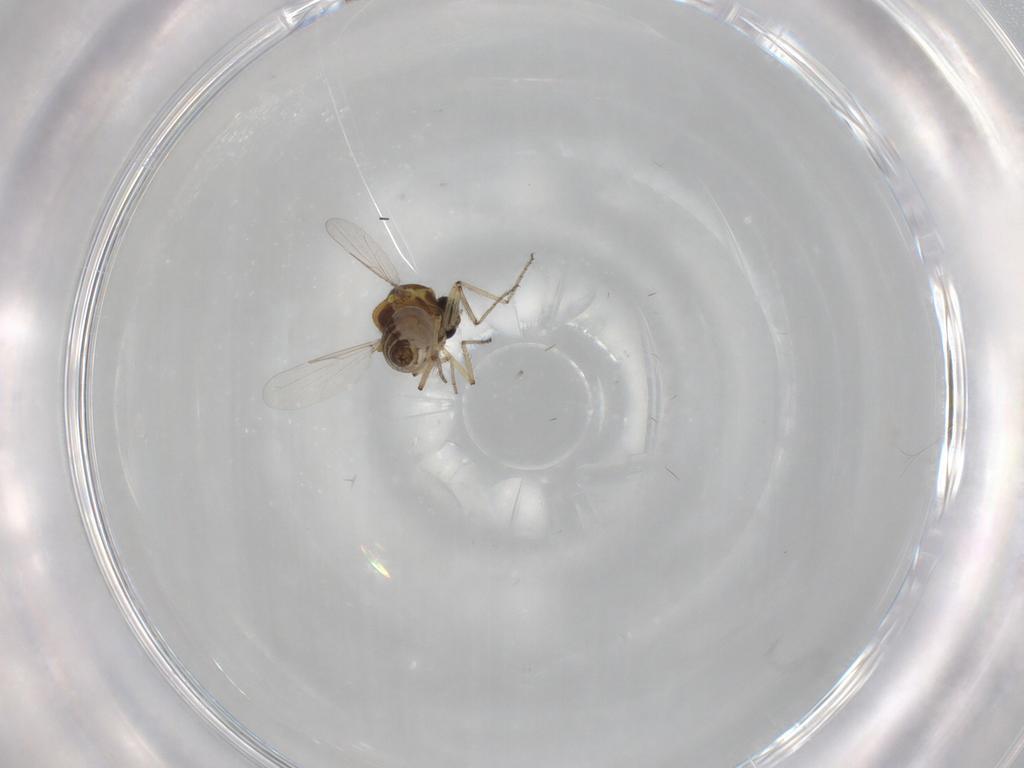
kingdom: Animalia
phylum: Arthropoda
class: Insecta
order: Diptera
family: Ceratopogonidae
